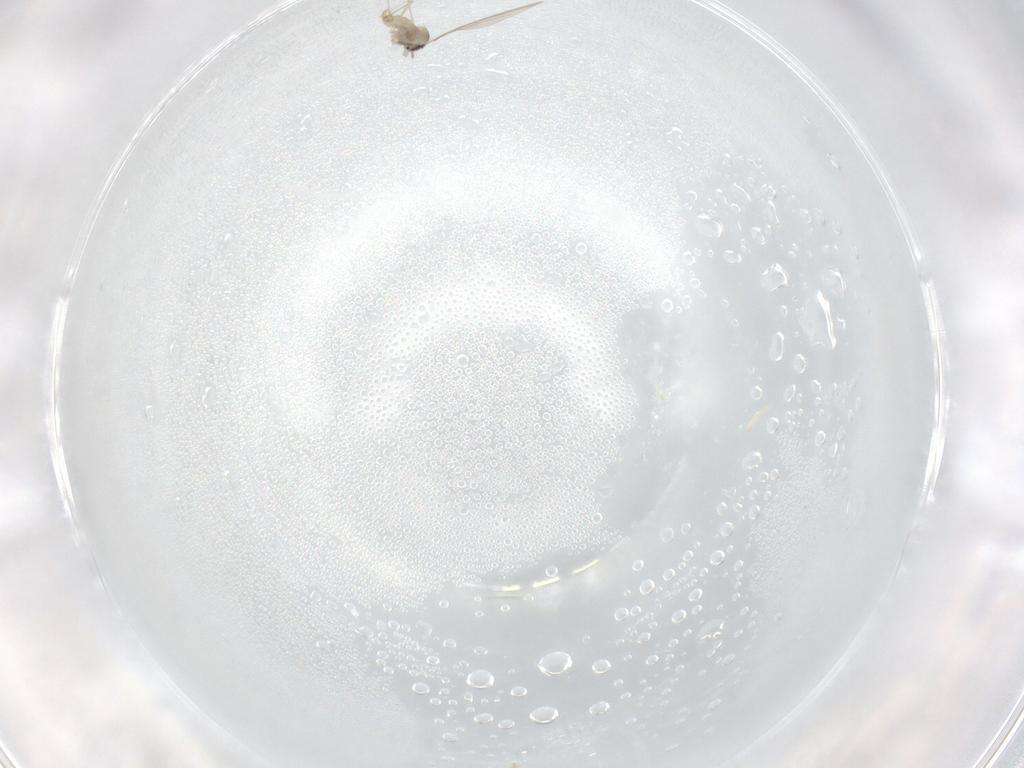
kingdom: Animalia
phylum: Arthropoda
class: Insecta
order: Diptera
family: Cecidomyiidae
